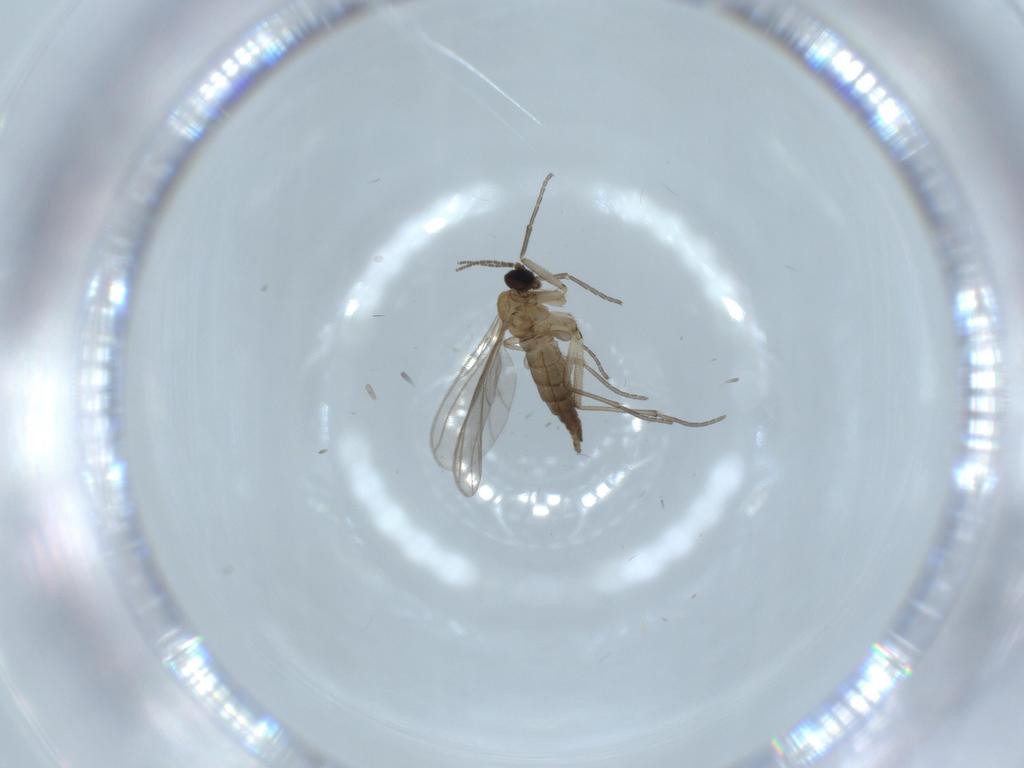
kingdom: Animalia
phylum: Arthropoda
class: Insecta
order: Diptera
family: Sciaridae
